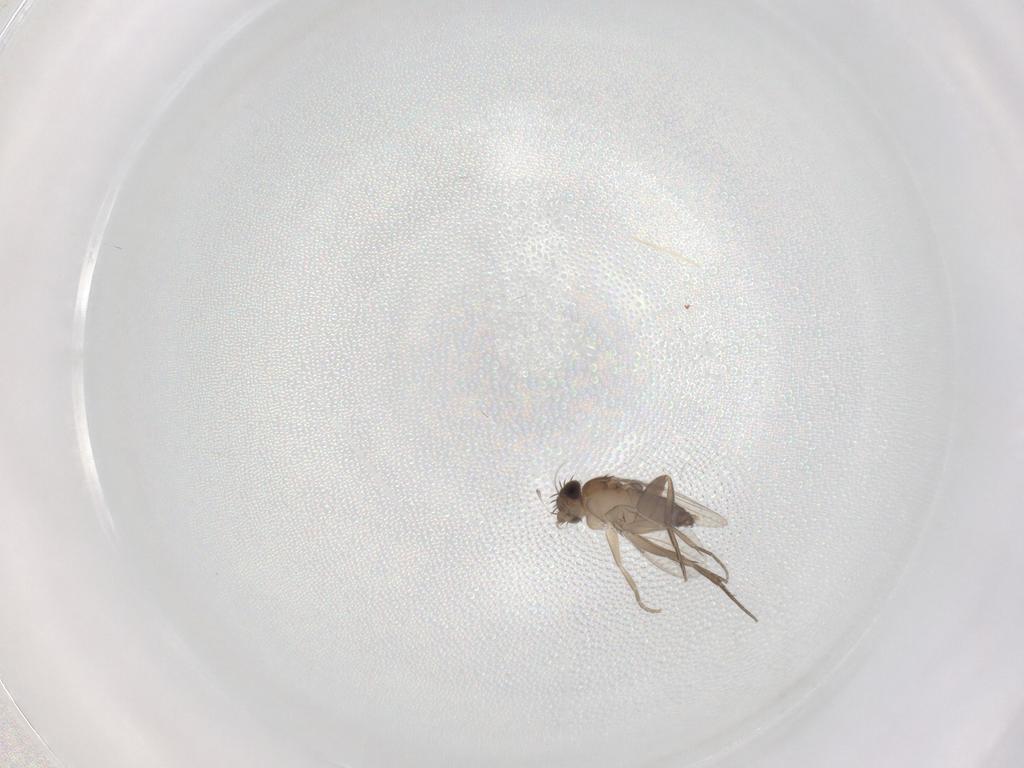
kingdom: Animalia
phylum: Arthropoda
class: Insecta
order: Diptera
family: Phoridae
